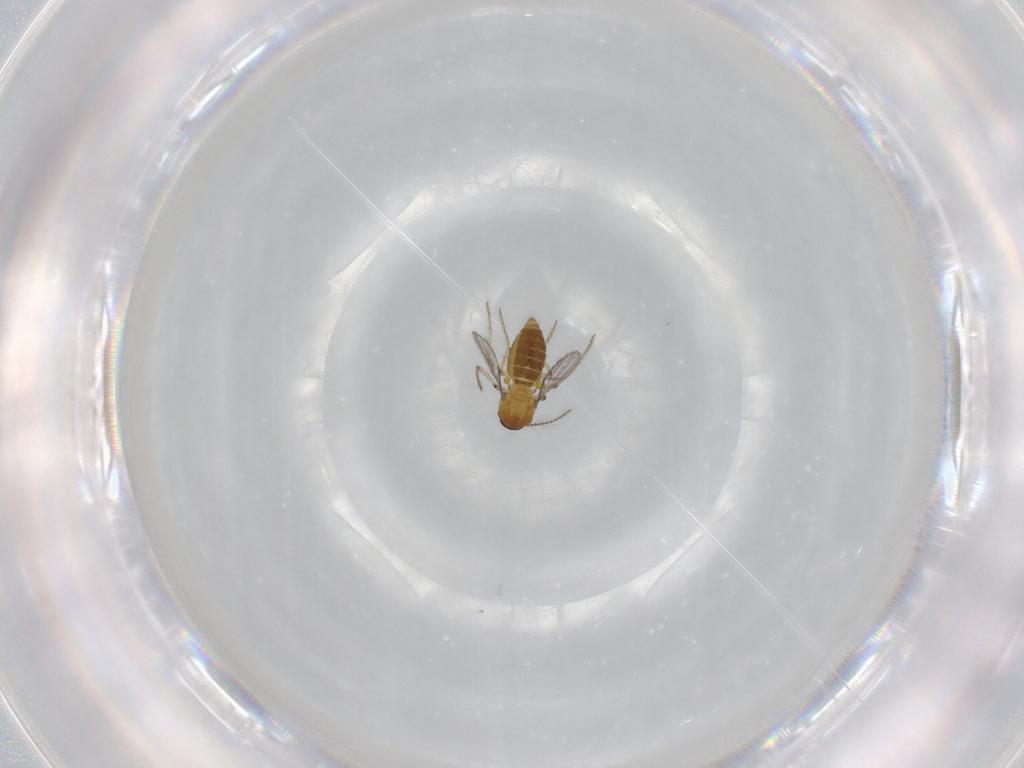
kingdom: Animalia
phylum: Arthropoda
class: Insecta
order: Diptera
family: Ceratopogonidae
